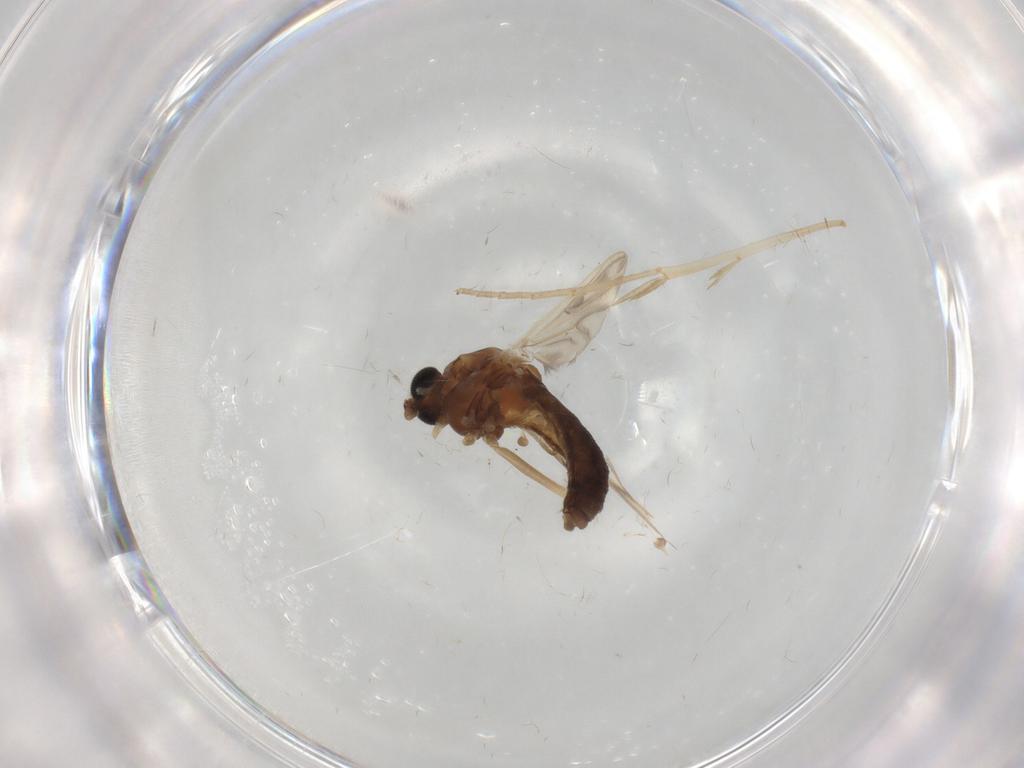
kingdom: Animalia
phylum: Arthropoda
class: Insecta
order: Diptera
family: Chironomidae
